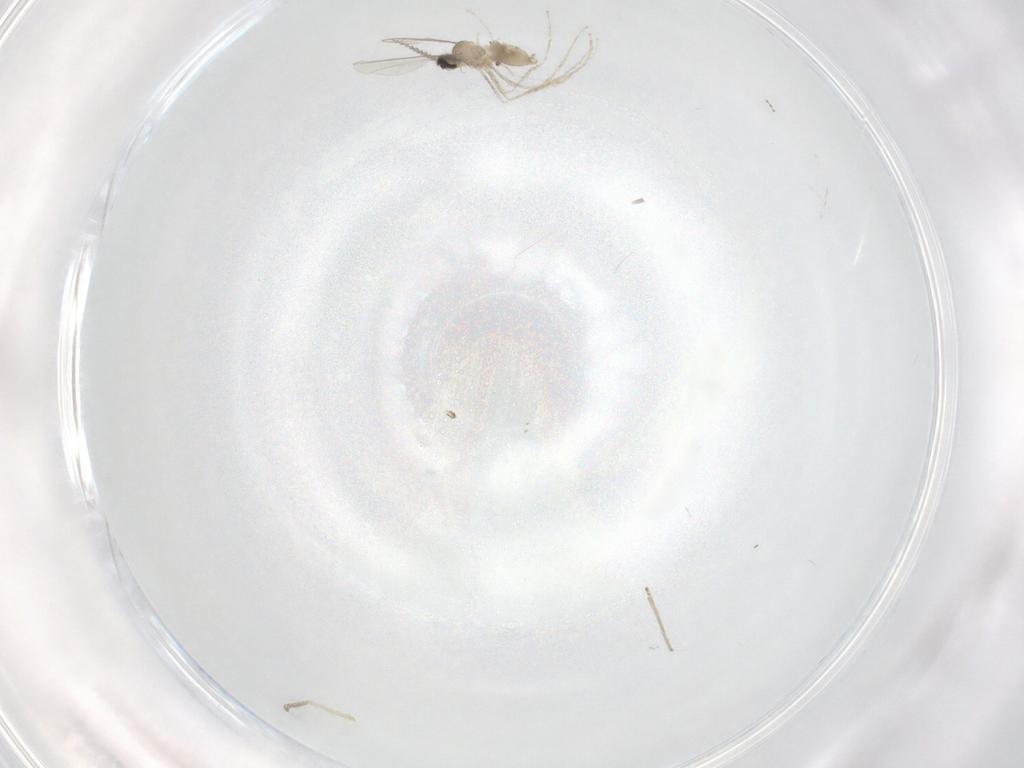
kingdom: Animalia
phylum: Arthropoda
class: Insecta
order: Diptera
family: Cecidomyiidae
